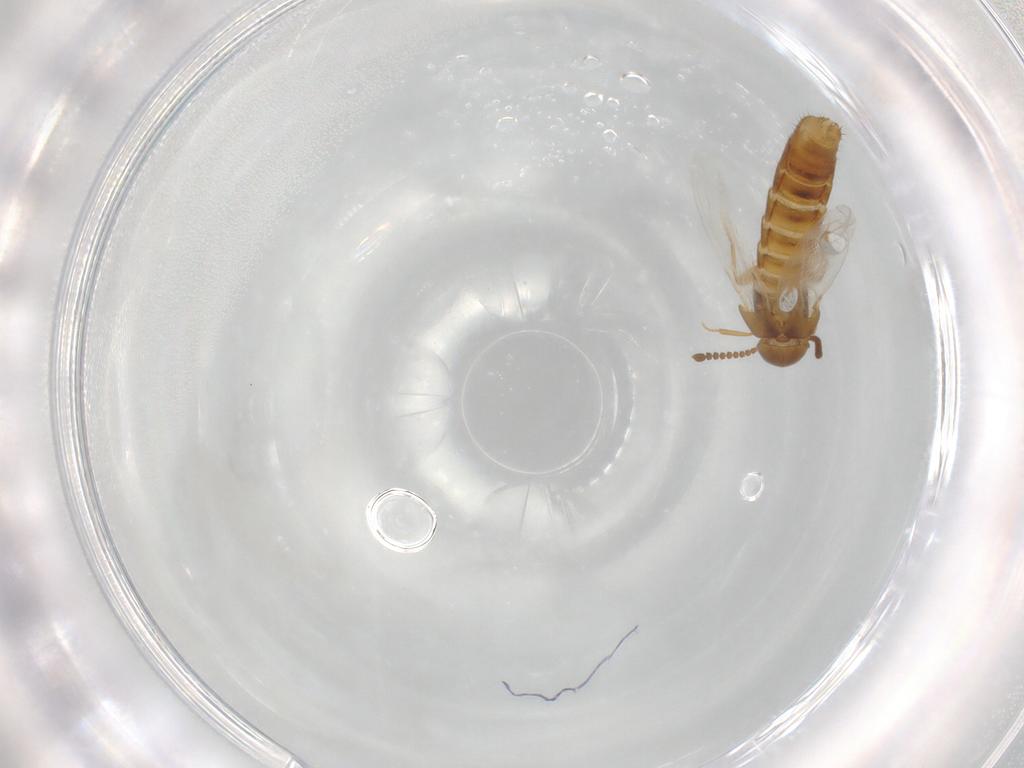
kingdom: Animalia
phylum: Arthropoda
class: Insecta
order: Coleoptera
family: Staphylinidae
